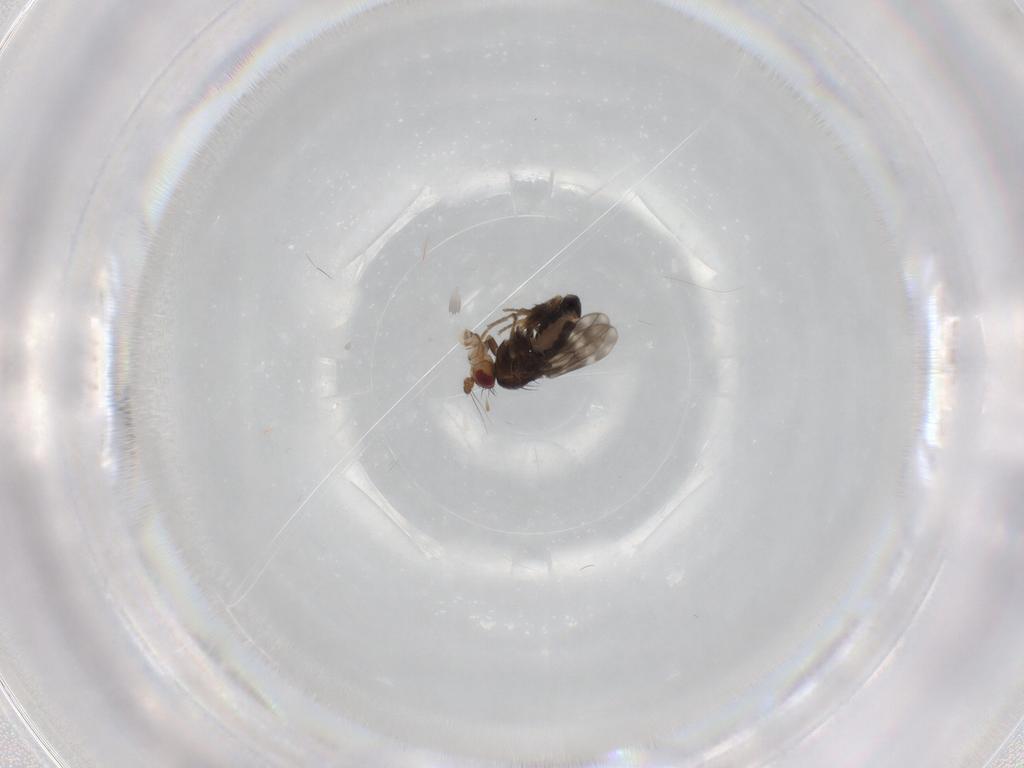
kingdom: Animalia
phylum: Arthropoda
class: Insecta
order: Diptera
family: Sphaeroceridae
